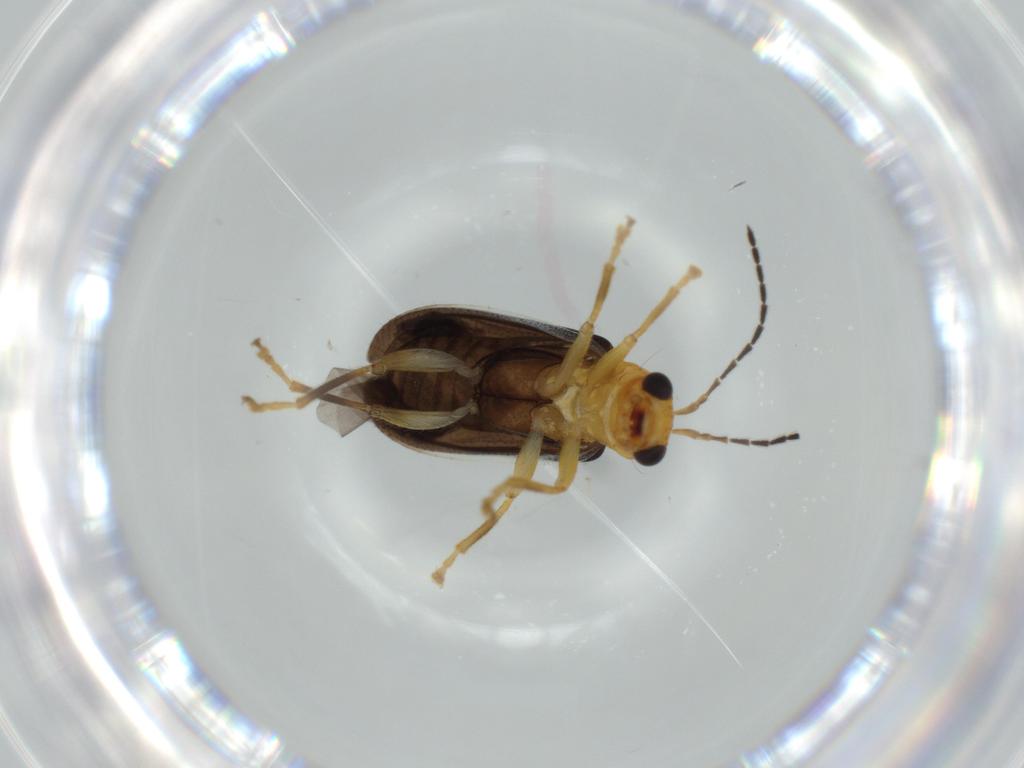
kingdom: Animalia
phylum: Arthropoda
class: Insecta
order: Coleoptera
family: Chrysomelidae
